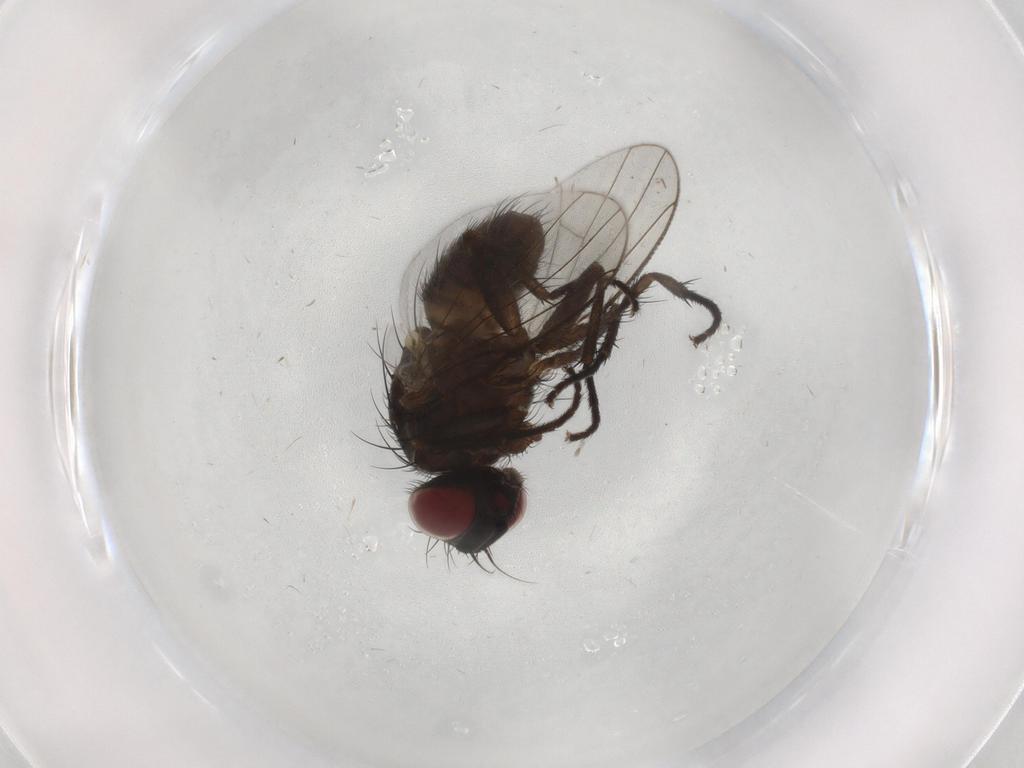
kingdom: Animalia
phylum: Arthropoda
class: Insecta
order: Diptera
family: Muscidae
